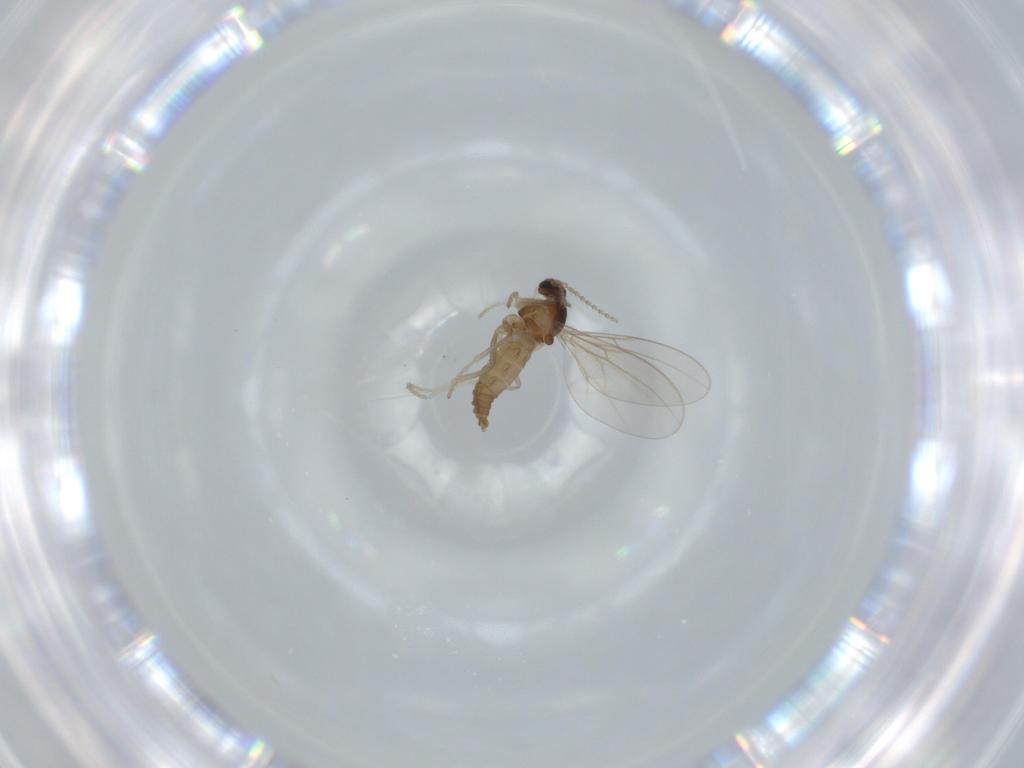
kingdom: Animalia
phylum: Arthropoda
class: Insecta
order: Diptera
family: Cecidomyiidae
